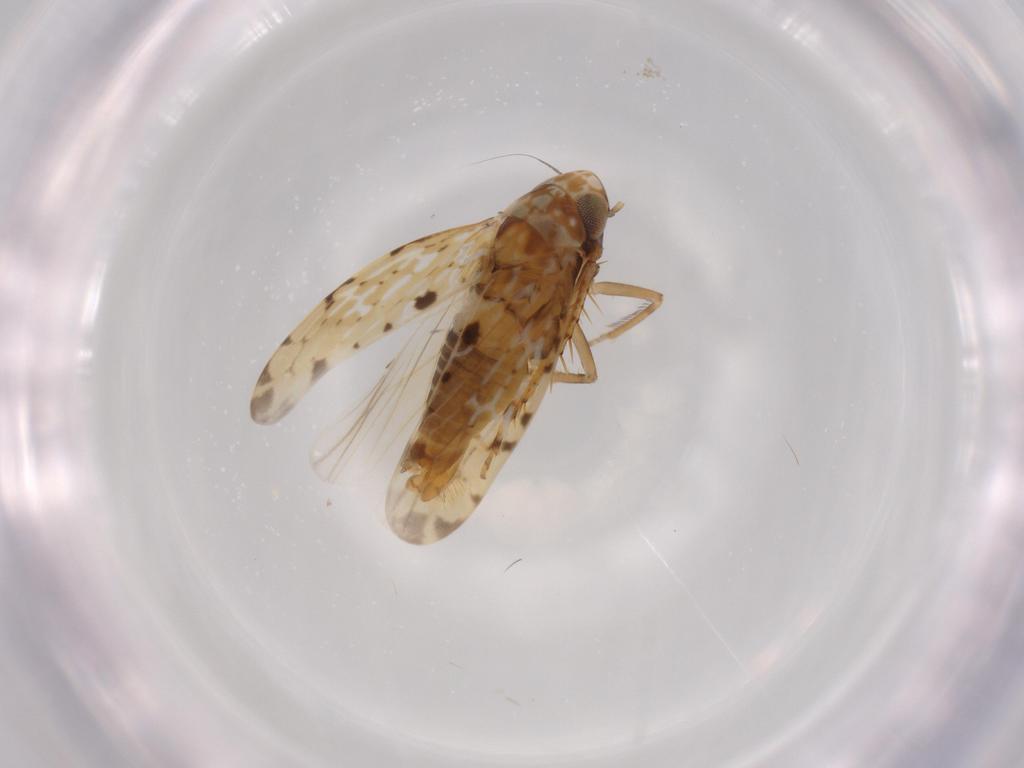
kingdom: Animalia
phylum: Arthropoda
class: Insecta
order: Hemiptera
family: Cicadellidae
